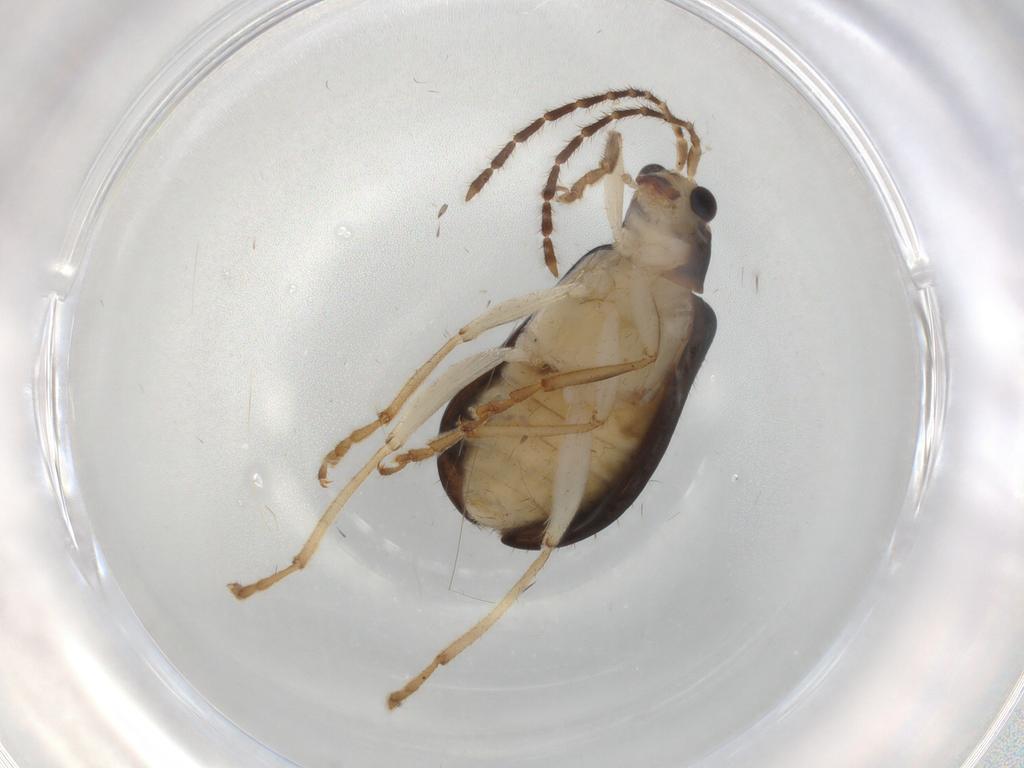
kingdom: Animalia
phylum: Arthropoda
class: Insecta
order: Coleoptera
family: Chrysomelidae
